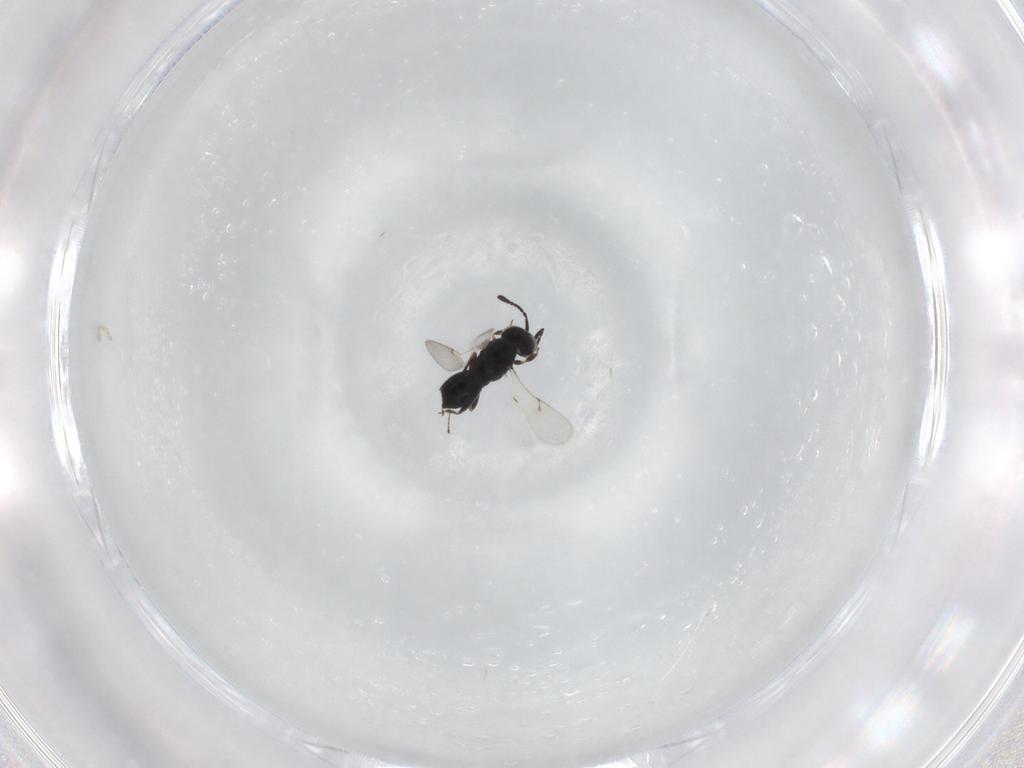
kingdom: Animalia
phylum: Arthropoda
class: Insecta
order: Hymenoptera
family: Scelionidae
